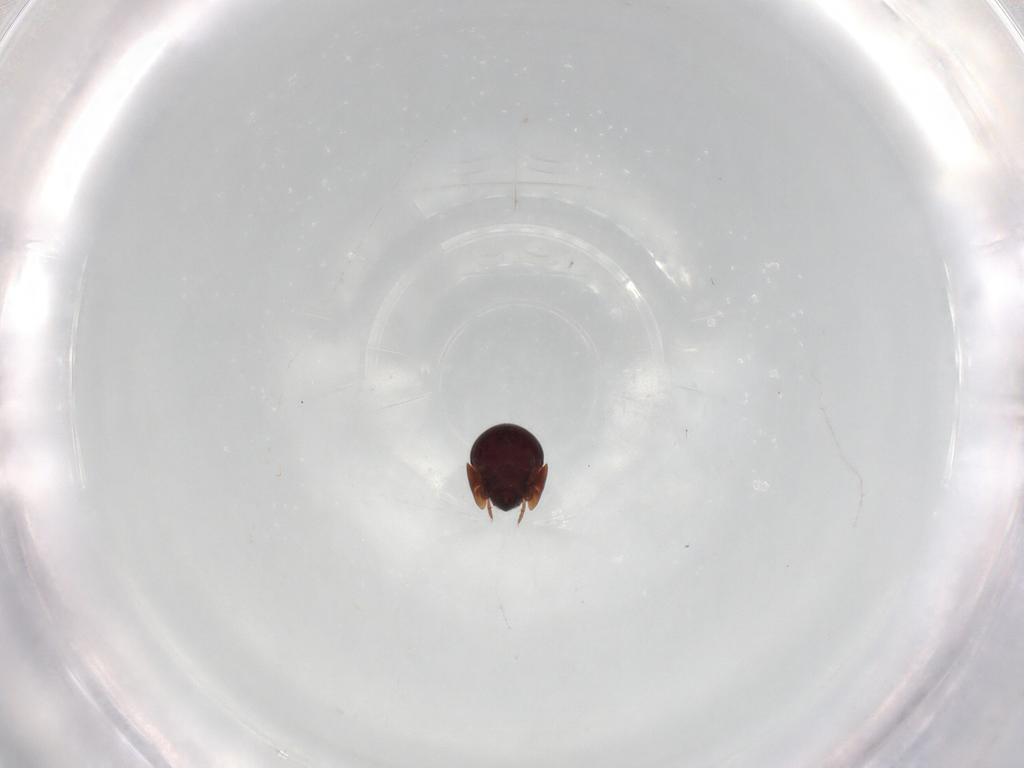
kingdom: Animalia
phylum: Arthropoda
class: Arachnida
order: Sarcoptiformes
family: Galumnidae
